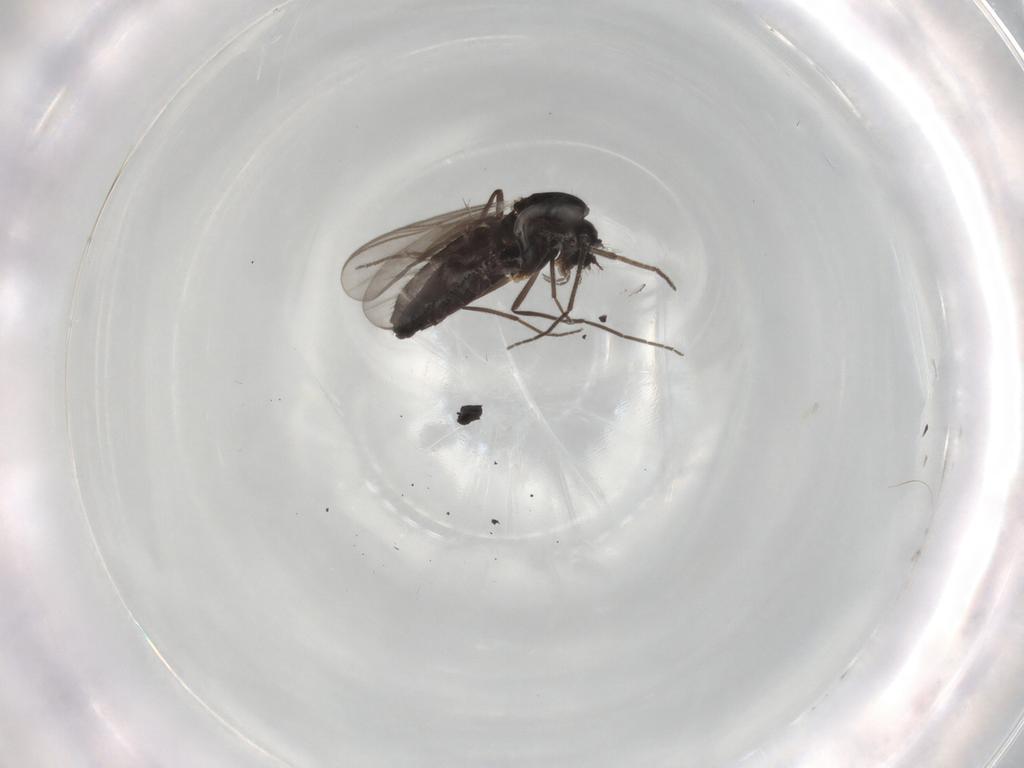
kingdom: Animalia
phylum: Arthropoda
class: Insecta
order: Diptera
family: Chironomidae
